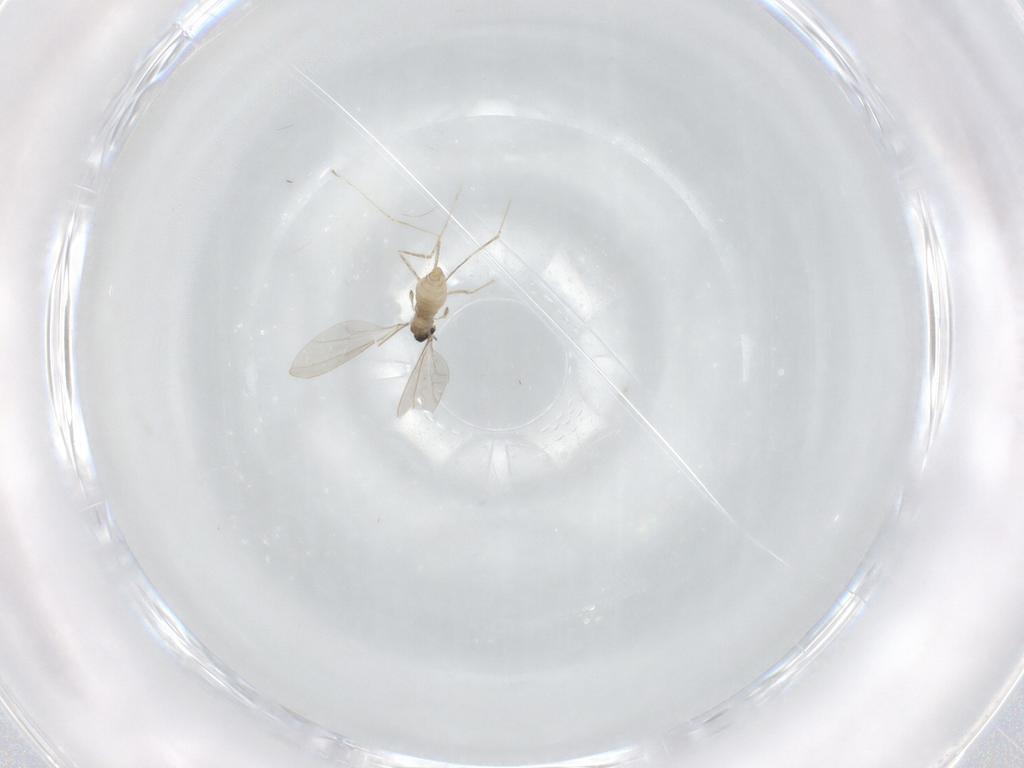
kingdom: Animalia
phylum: Arthropoda
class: Insecta
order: Diptera
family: Cecidomyiidae
